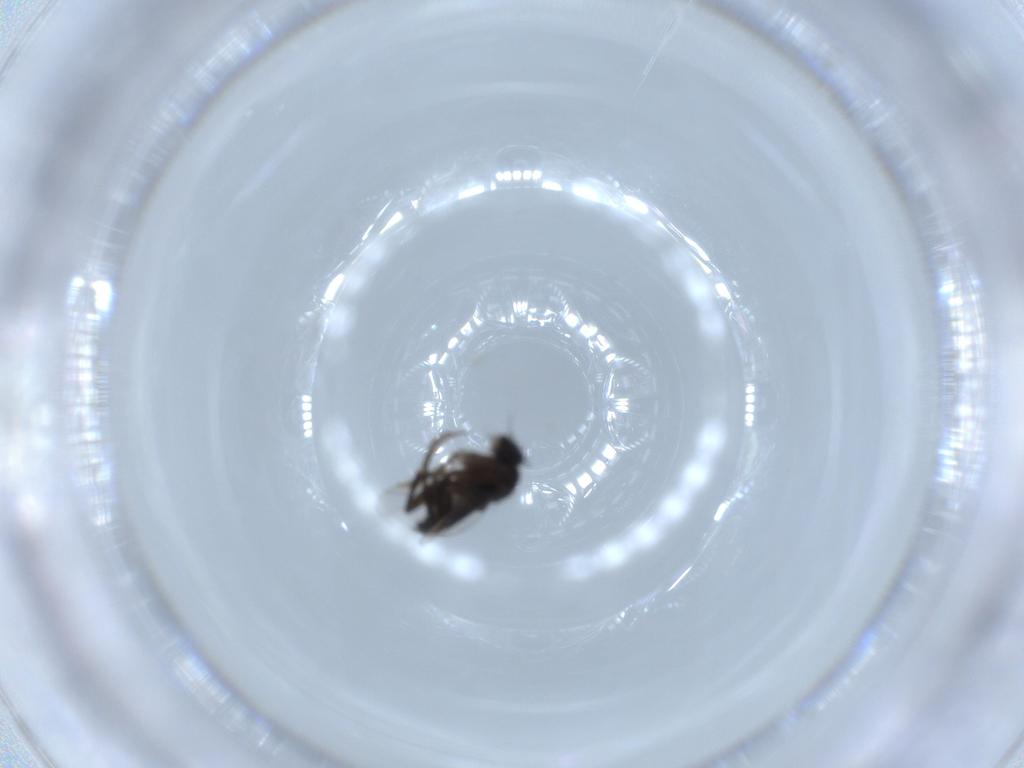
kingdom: Animalia
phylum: Arthropoda
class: Insecta
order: Diptera
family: Phoridae
